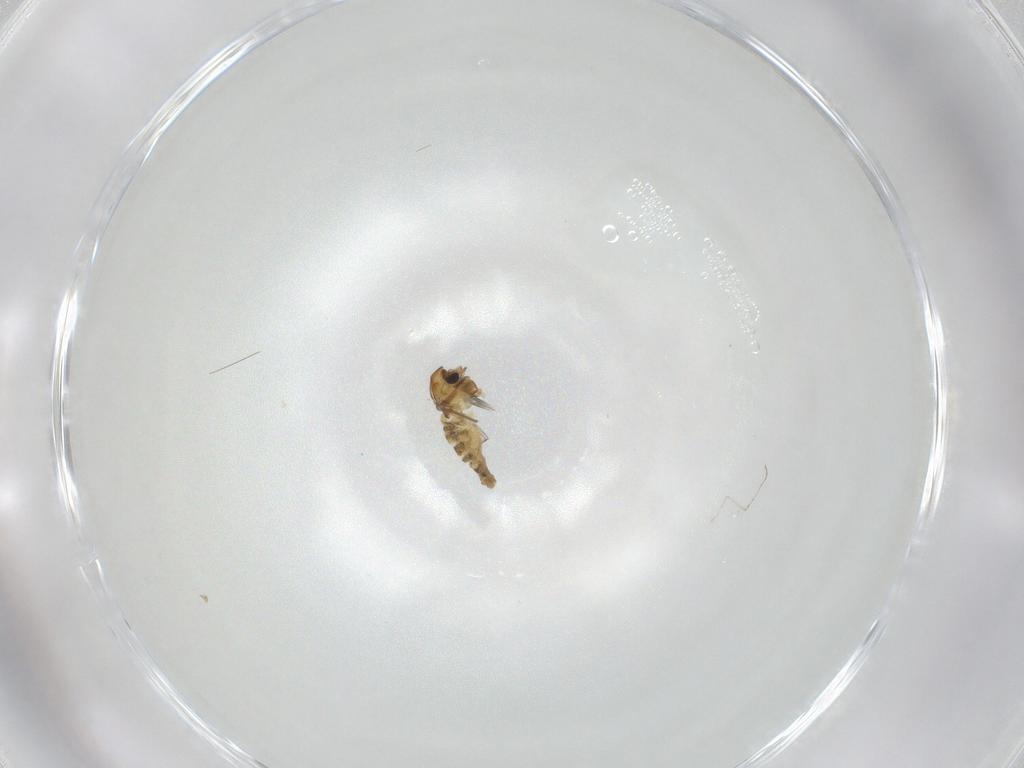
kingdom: Animalia
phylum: Arthropoda
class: Insecta
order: Diptera
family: Chironomidae
